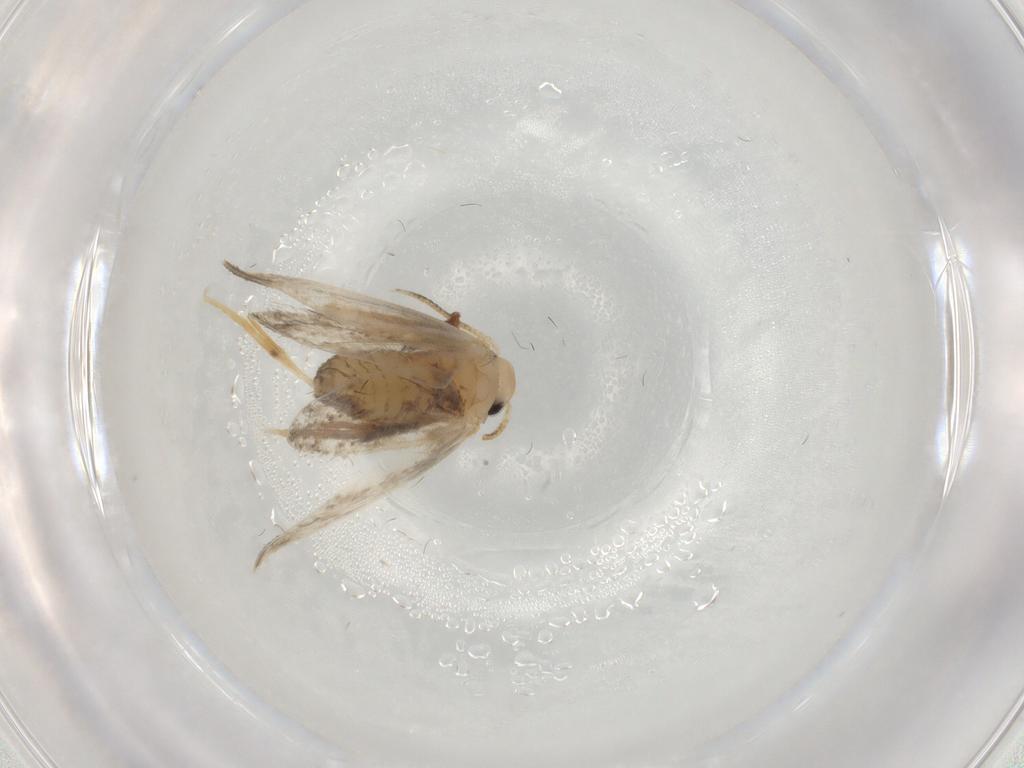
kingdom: Animalia
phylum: Arthropoda
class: Insecta
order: Lepidoptera
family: Psychidae
